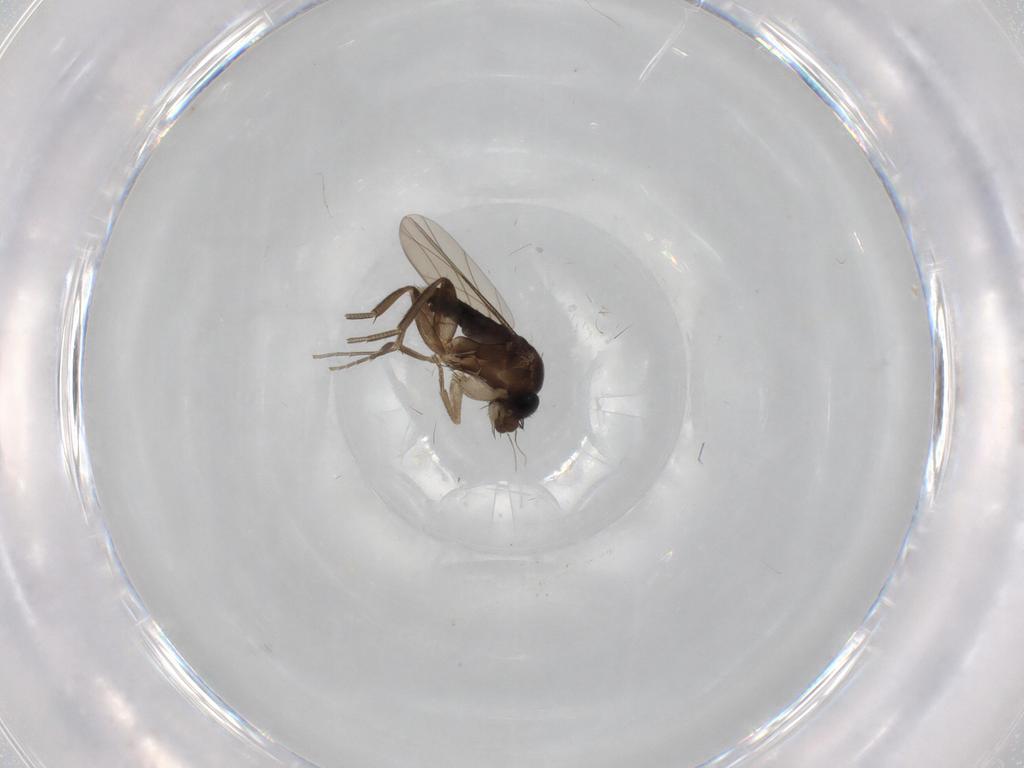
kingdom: Animalia
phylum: Arthropoda
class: Insecta
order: Diptera
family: Phoridae
